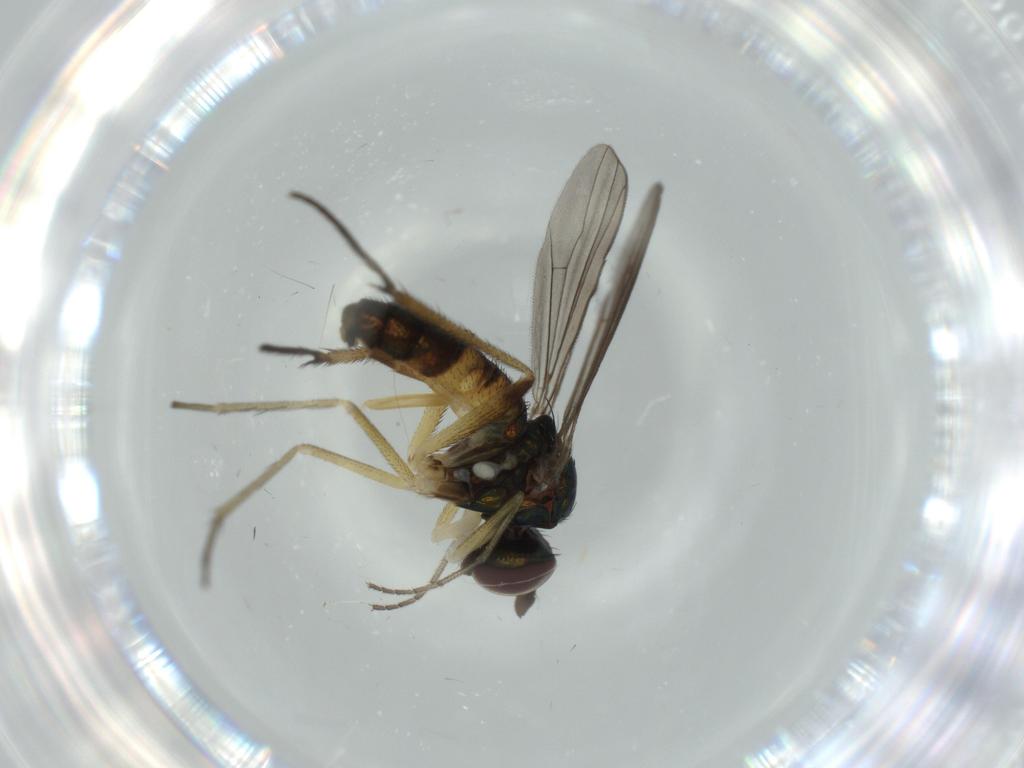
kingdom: Animalia
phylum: Arthropoda
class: Insecta
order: Diptera
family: Dolichopodidae
